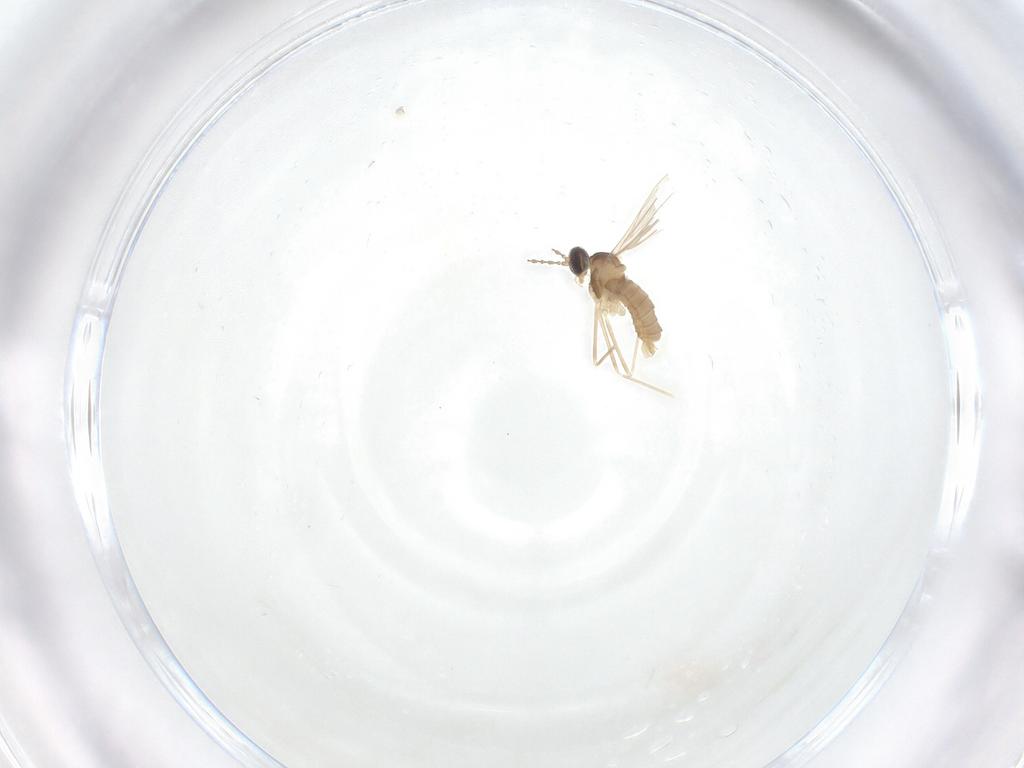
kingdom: Animalia
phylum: Arthropoda
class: Insecta
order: Diptera
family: Cecidomyiidae
